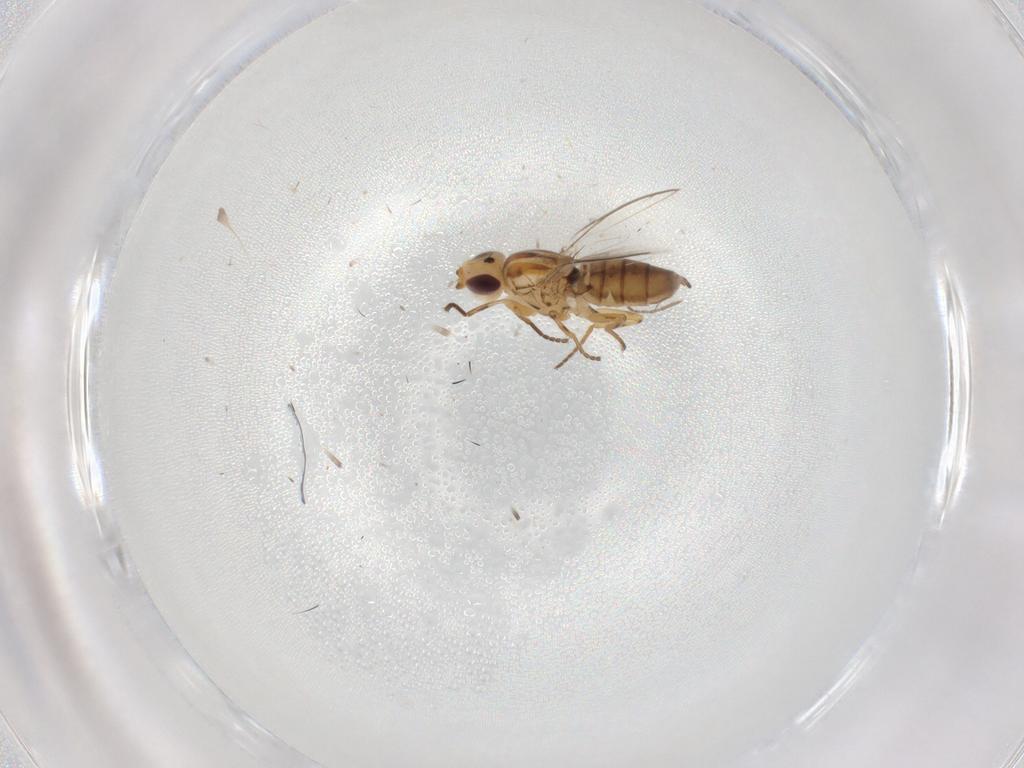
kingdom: Animalia
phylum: Arthropoda
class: Insecta
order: Diptera
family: Chloropidae
